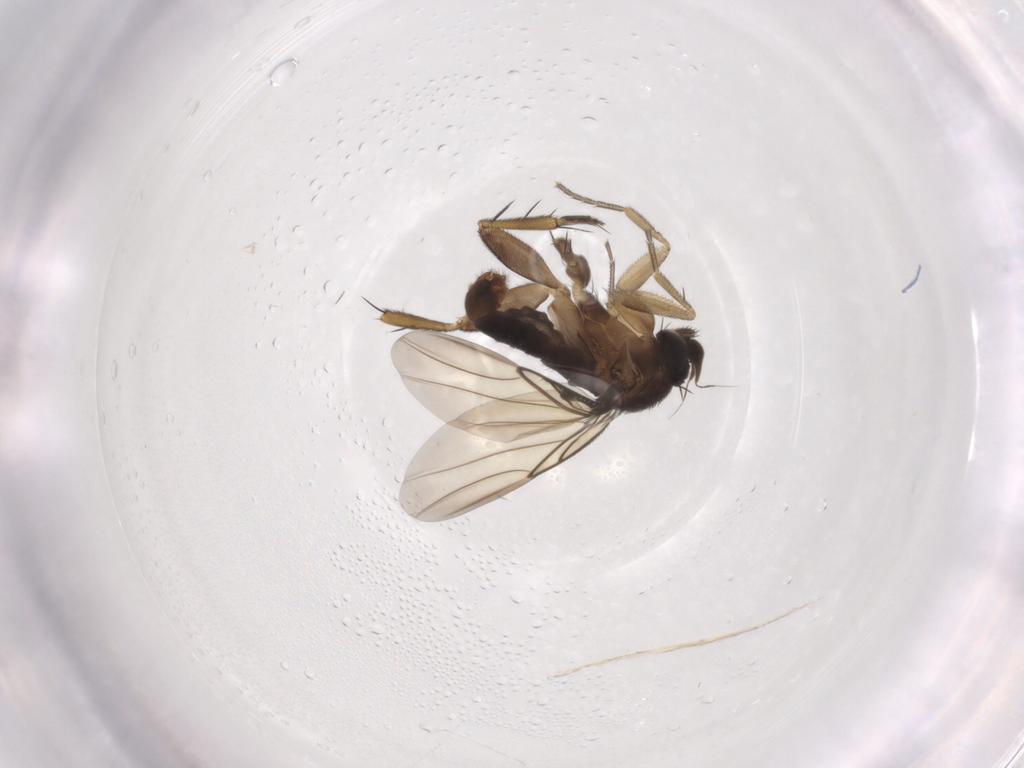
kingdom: Animalia
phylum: Arthropoda
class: Insecta
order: Diptera
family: Phoridae
